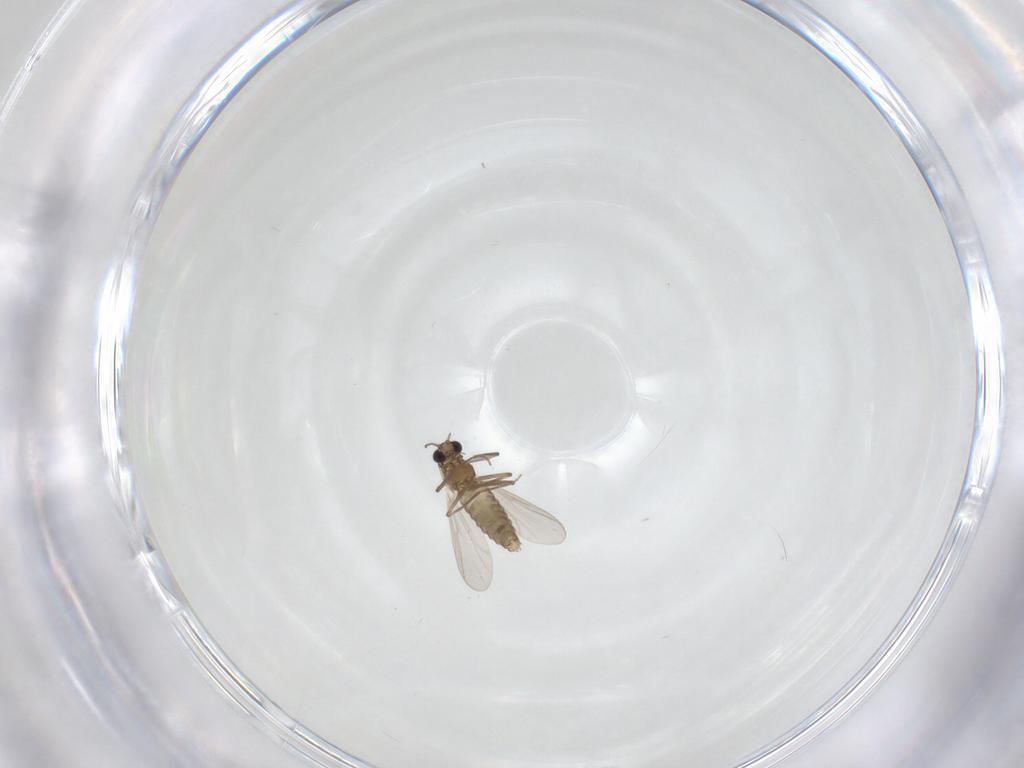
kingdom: Animalia
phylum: Arthropoda
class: Insecta
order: Diptera
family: Chironomidae
